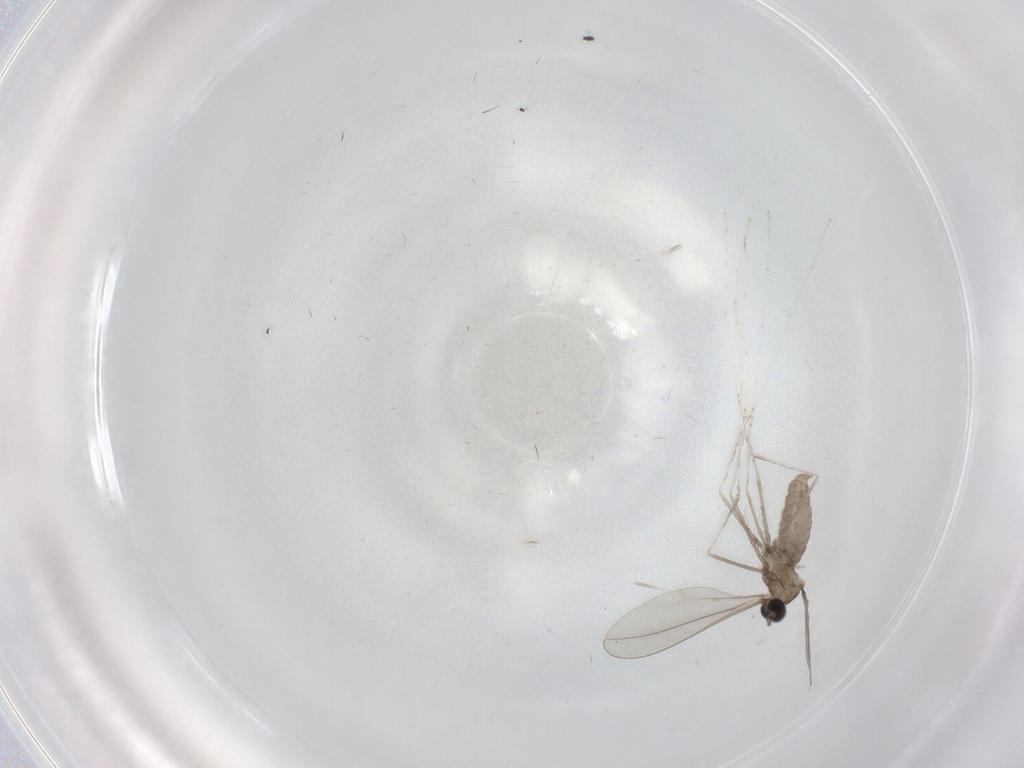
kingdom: Animalia
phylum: Arthropoda
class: Insecta
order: Diptera
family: Cecidomyiidae
